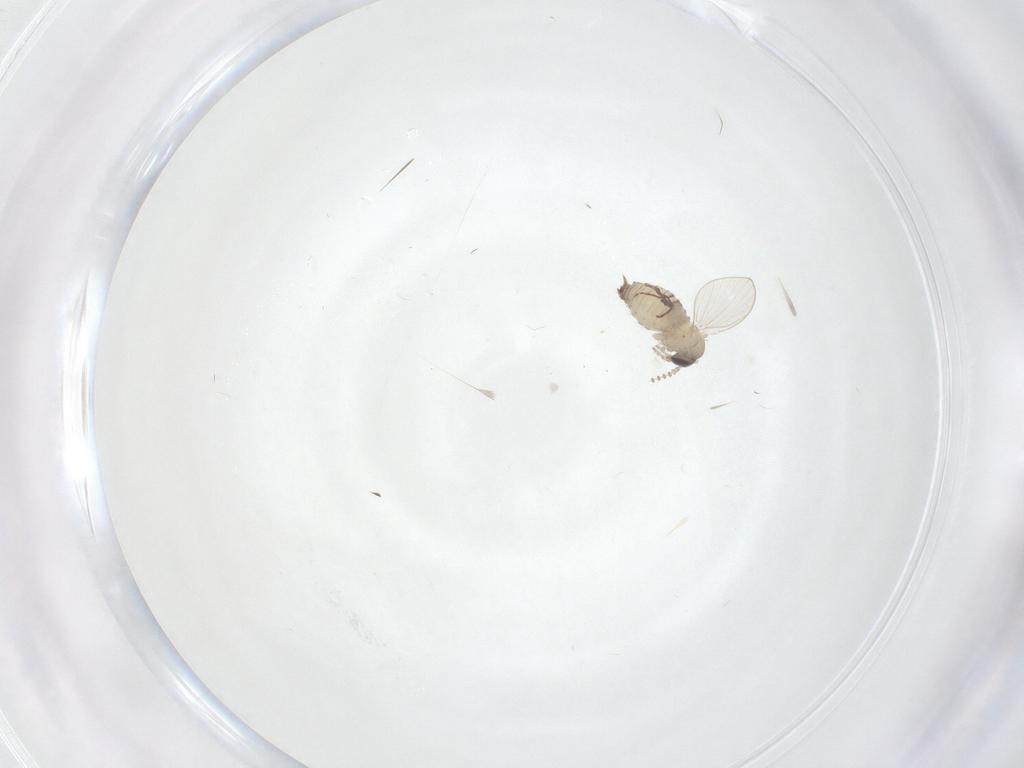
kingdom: Animalia
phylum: Arthropoda
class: Insecta
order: Diptera
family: Psychodidae
